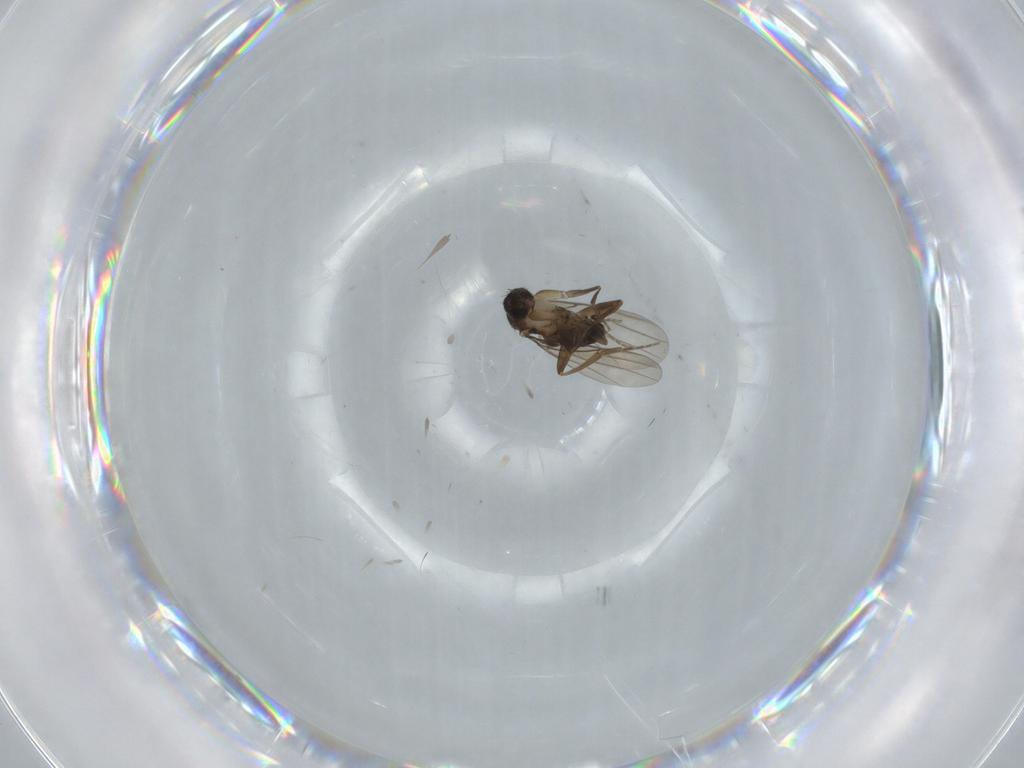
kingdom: Animalia
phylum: Arthropoda
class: Insecta
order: Diptera
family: Phoridae
